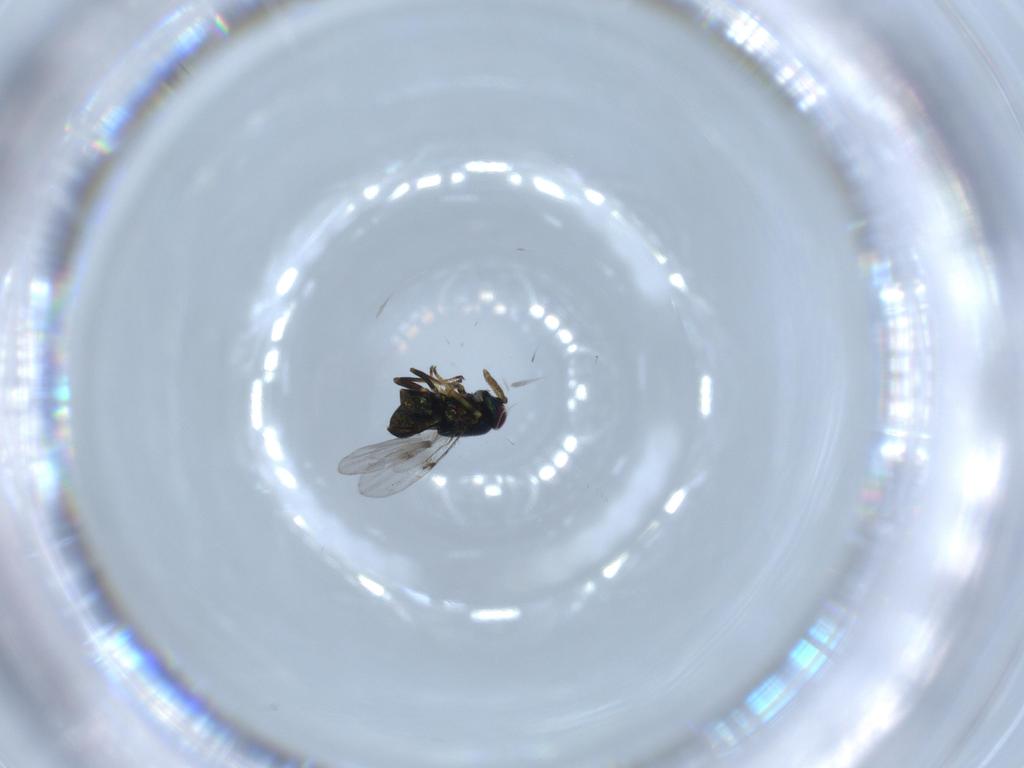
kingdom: Animalia
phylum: Arthropoda
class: Insecta
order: Hymenoptera
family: Encyrtidae
